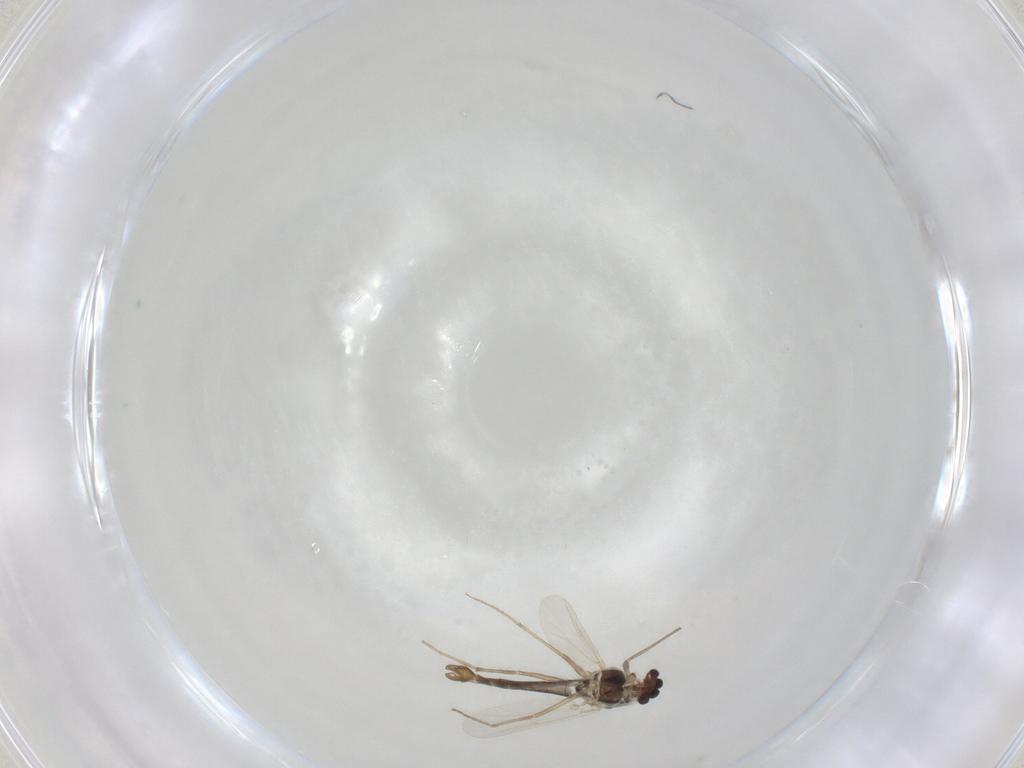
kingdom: Animalia
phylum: Arthropoda
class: Insecta
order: Diptera
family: Chironomidae
